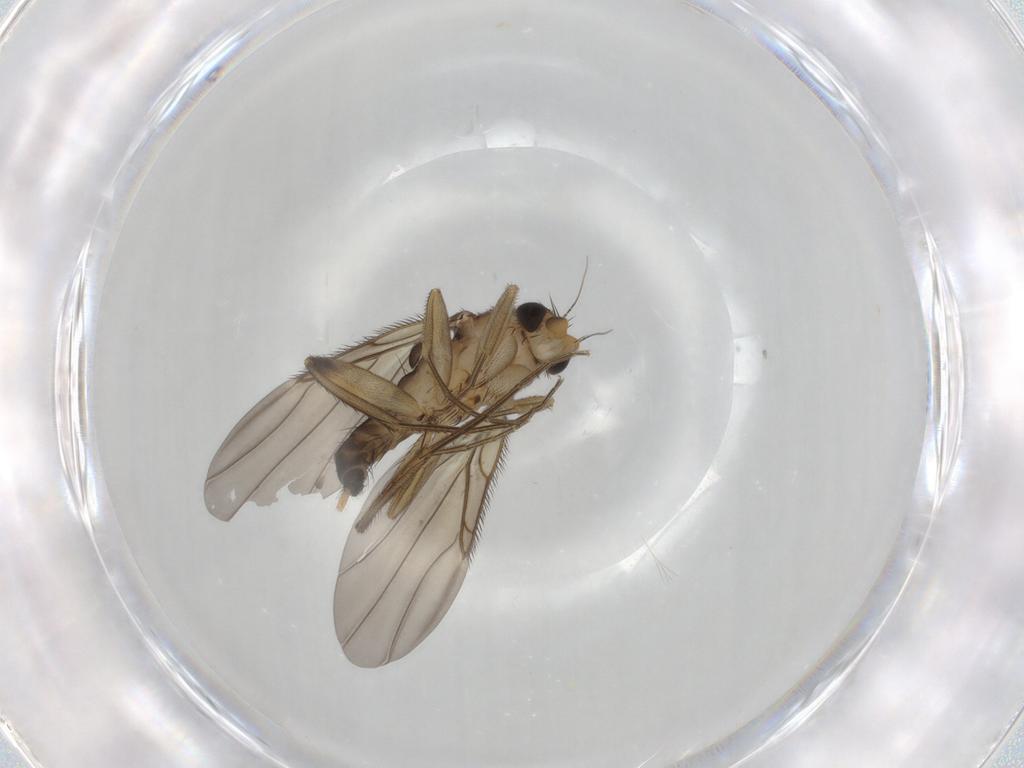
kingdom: Animalia
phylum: Arthropoda
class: Insecta
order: Diptera
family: Phoridae
